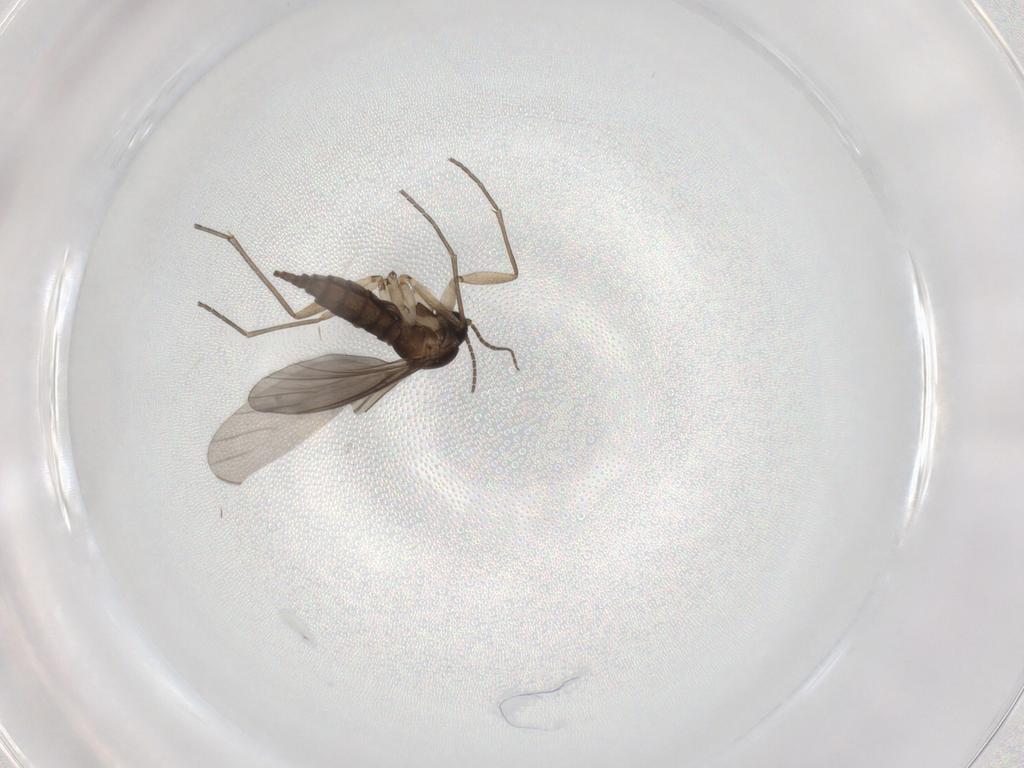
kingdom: Animalia
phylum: Arthropoda
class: Insecta
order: Diptera
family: Sciaridae
